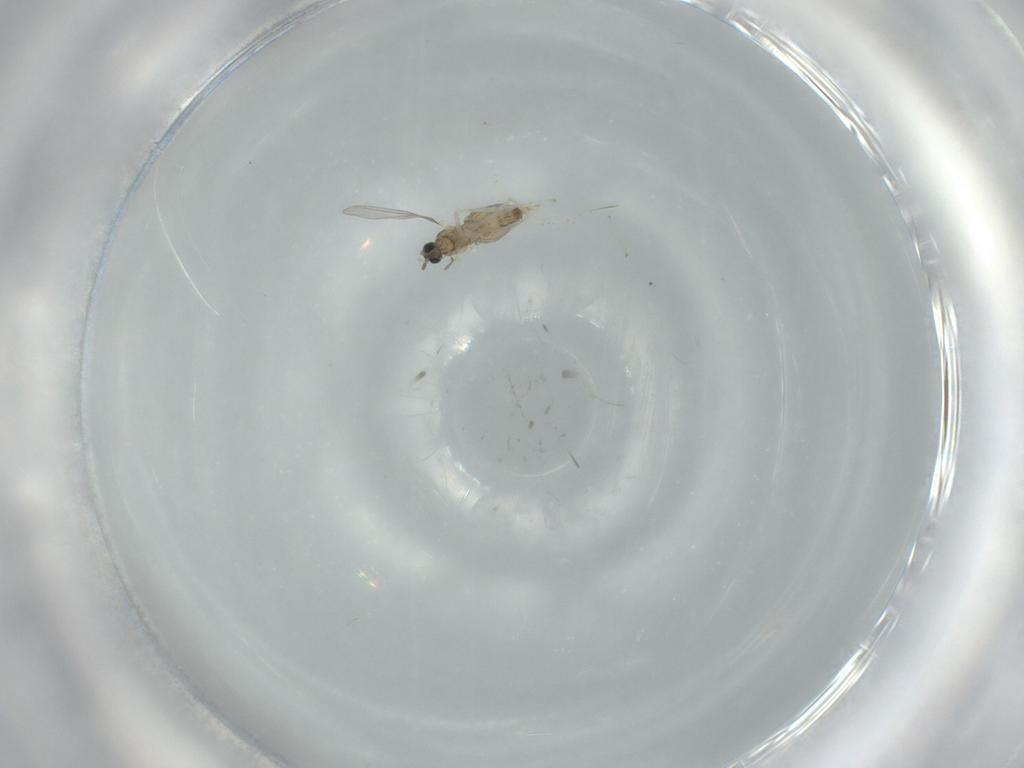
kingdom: Animalia
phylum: Arthropoda
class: Insecta
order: Diptera
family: Cecidomyiidae
